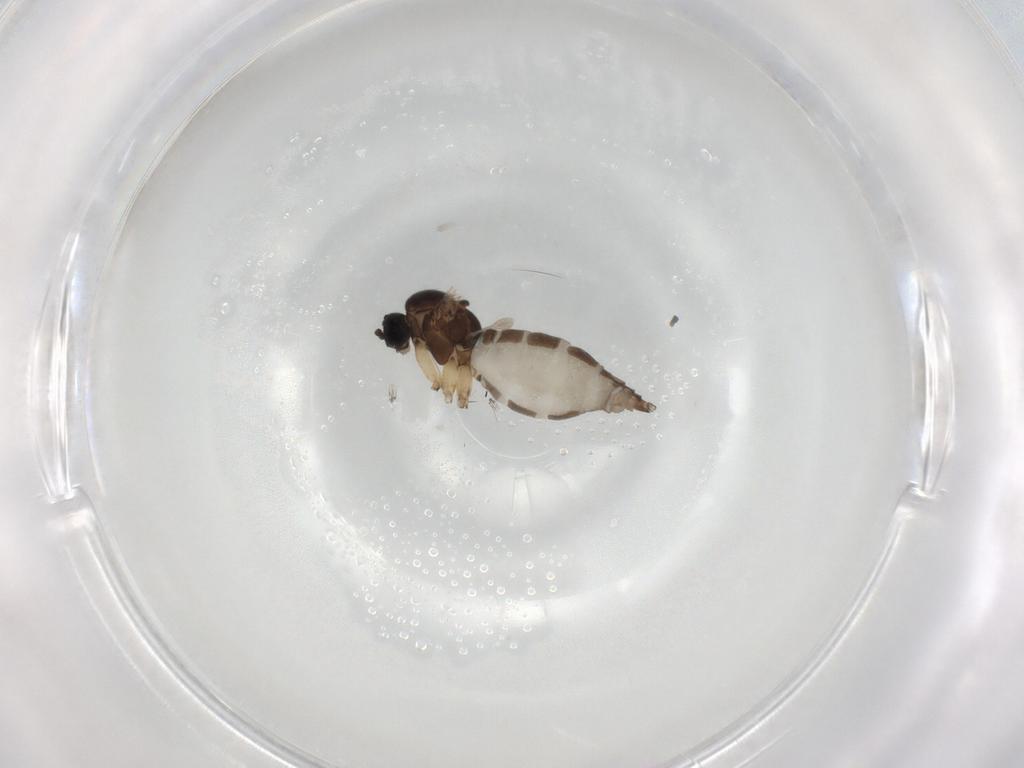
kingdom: Animalia
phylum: Arthropoda
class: Insecta
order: Diptera
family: Sciaridae
